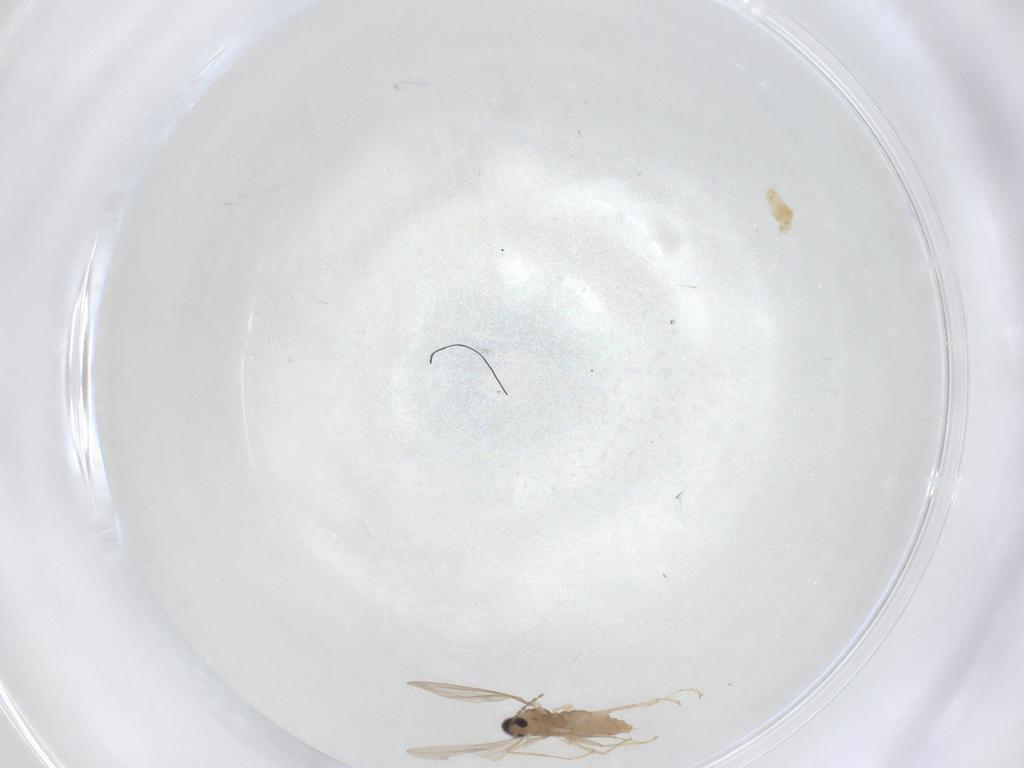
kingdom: Animalia
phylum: Arthropoda
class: Insecta
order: Diptera
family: Cecidomyiidae
